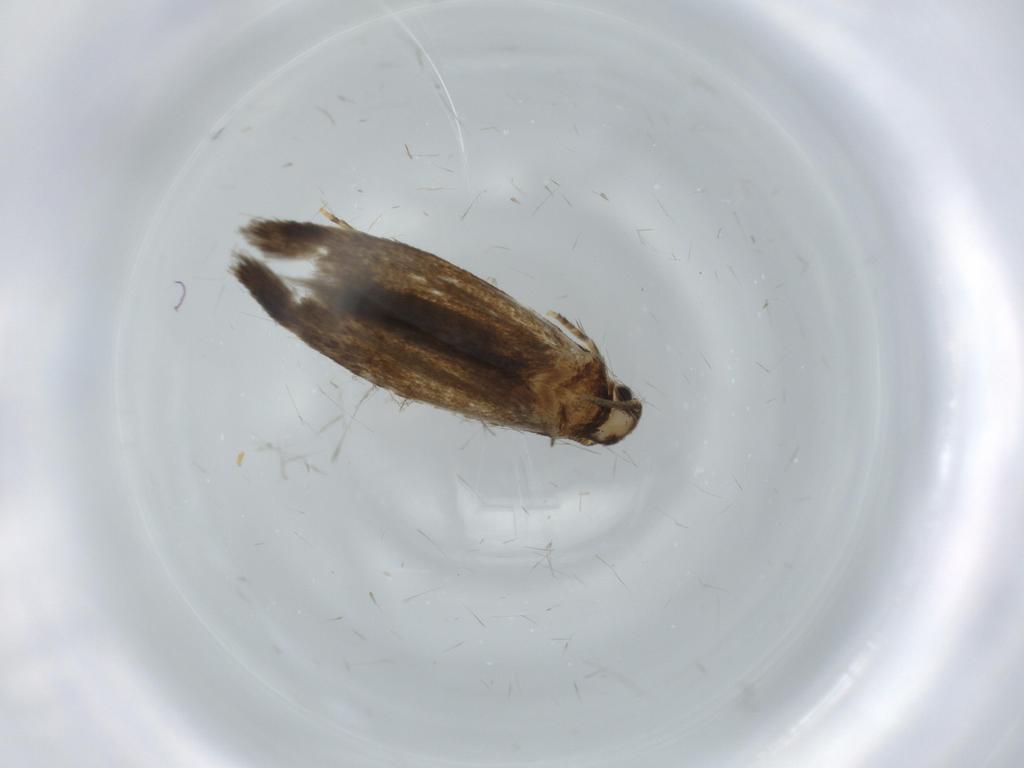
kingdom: Animalia
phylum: Arthropoda
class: Insecta
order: Lepidoptera
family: Tineidae
